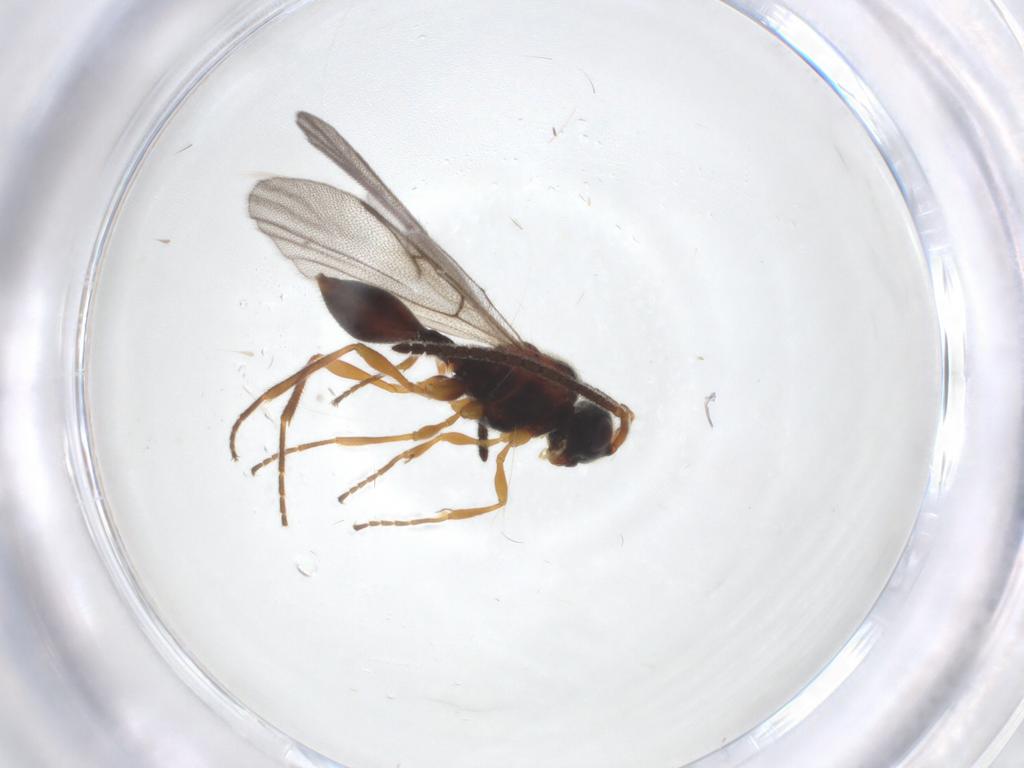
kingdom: Animalia
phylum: Arthropoda
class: Insecta
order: Hymenoptera
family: Diapriidae
